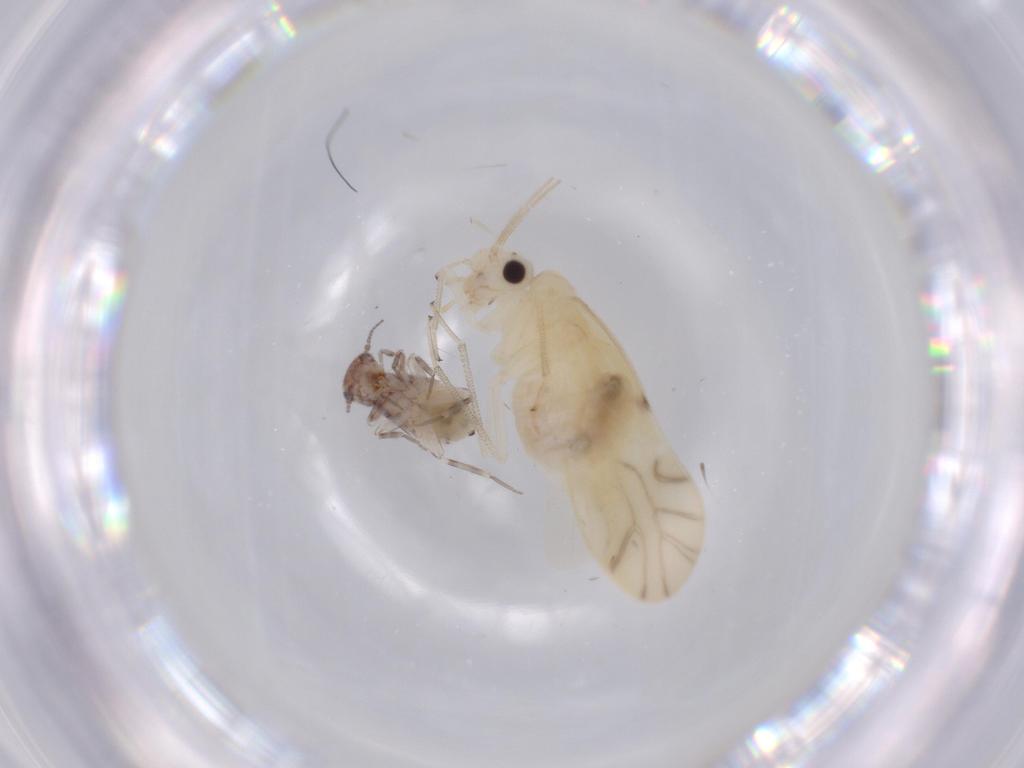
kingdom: Animalia
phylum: Arthropoda
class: Insecta
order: Psocodea
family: Caeciliusidae
